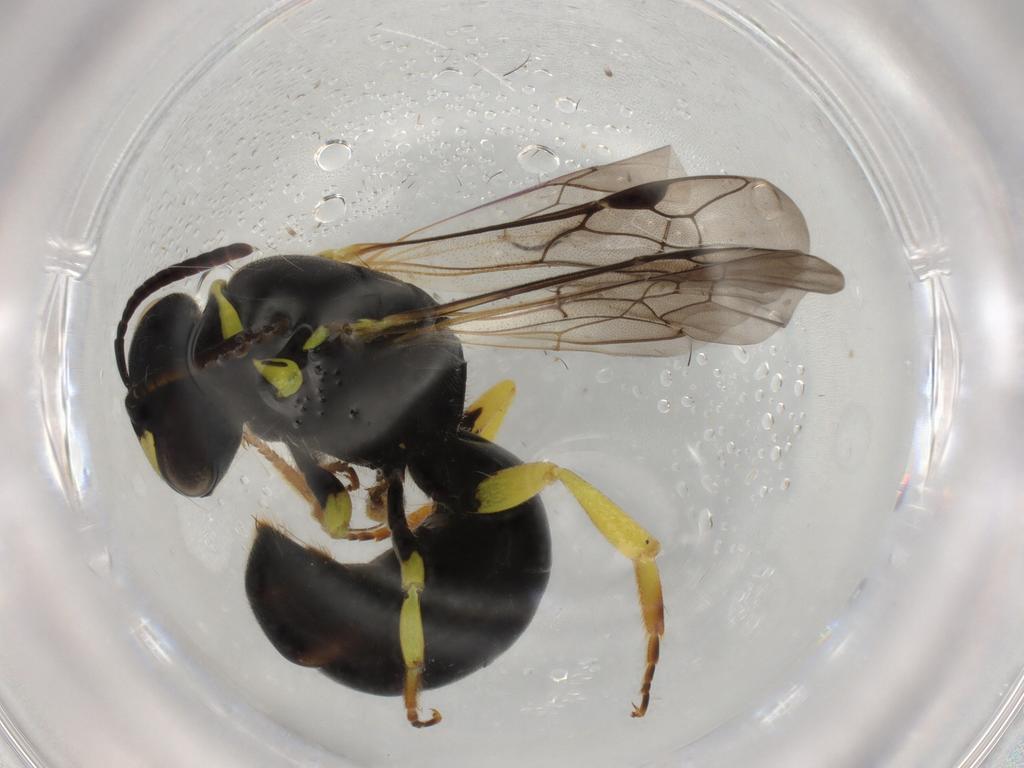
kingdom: Animalia
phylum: Arthropoda
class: Insecta
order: Hymenoptera
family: Colletidae
